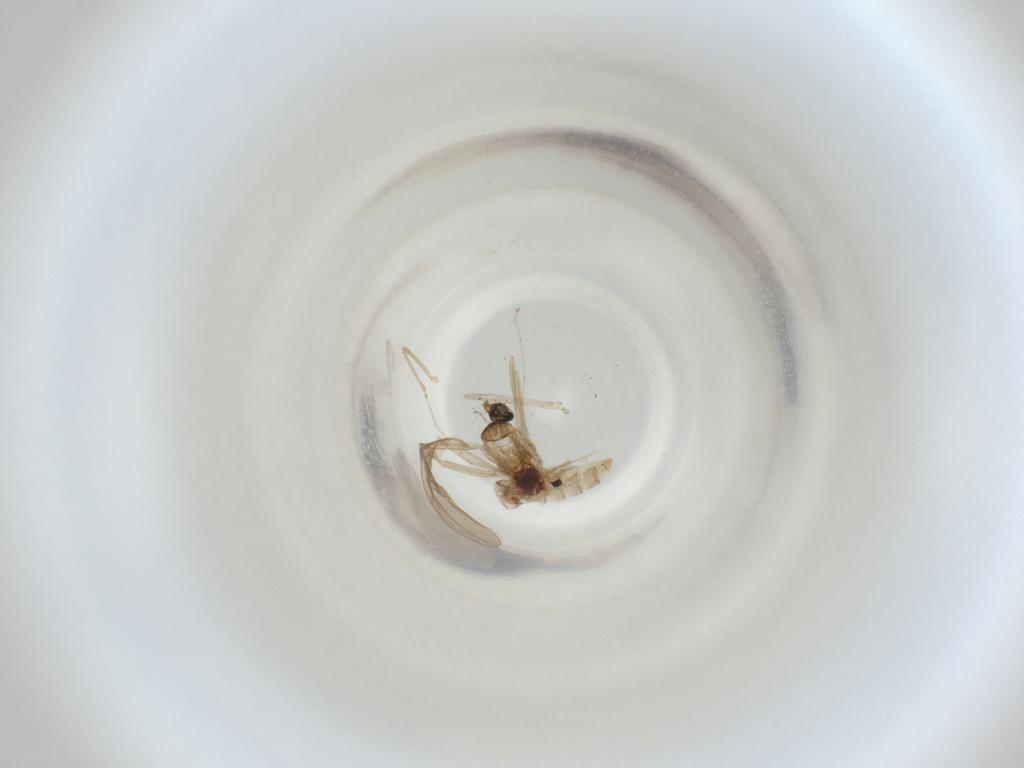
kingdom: Animalia
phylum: Arthropoda
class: Insecta
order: Diptera
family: Cecidomyiidae
